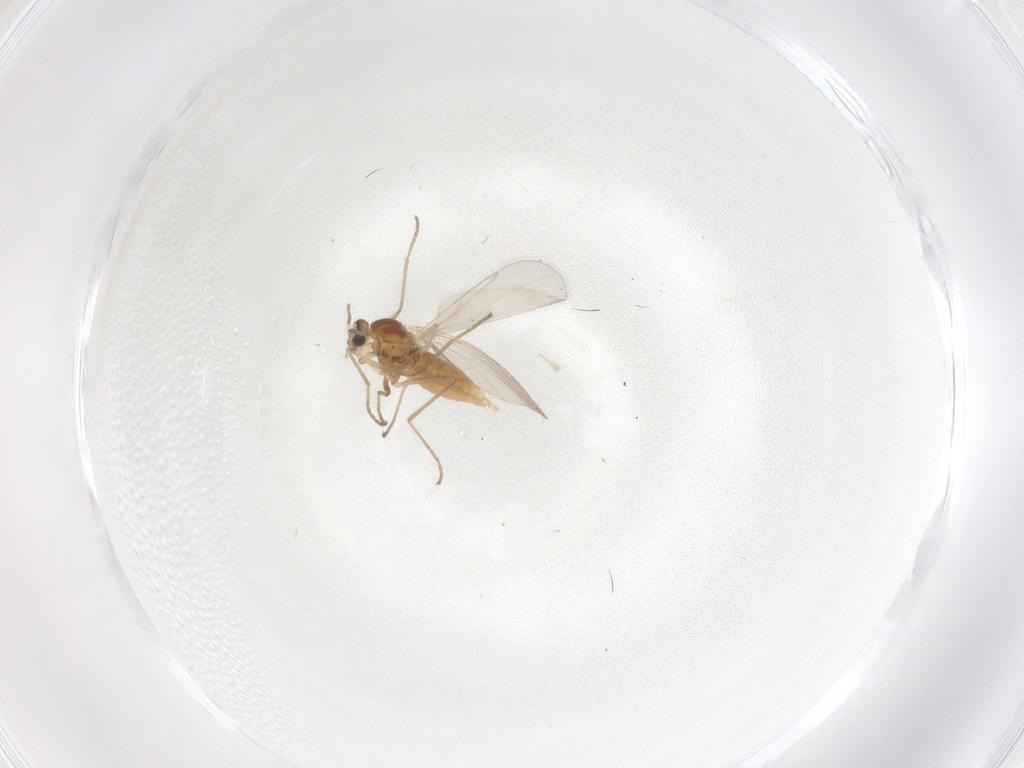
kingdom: Animalia
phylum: Arthropoda
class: Insecta
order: Diptera
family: Cecidomyiidae
